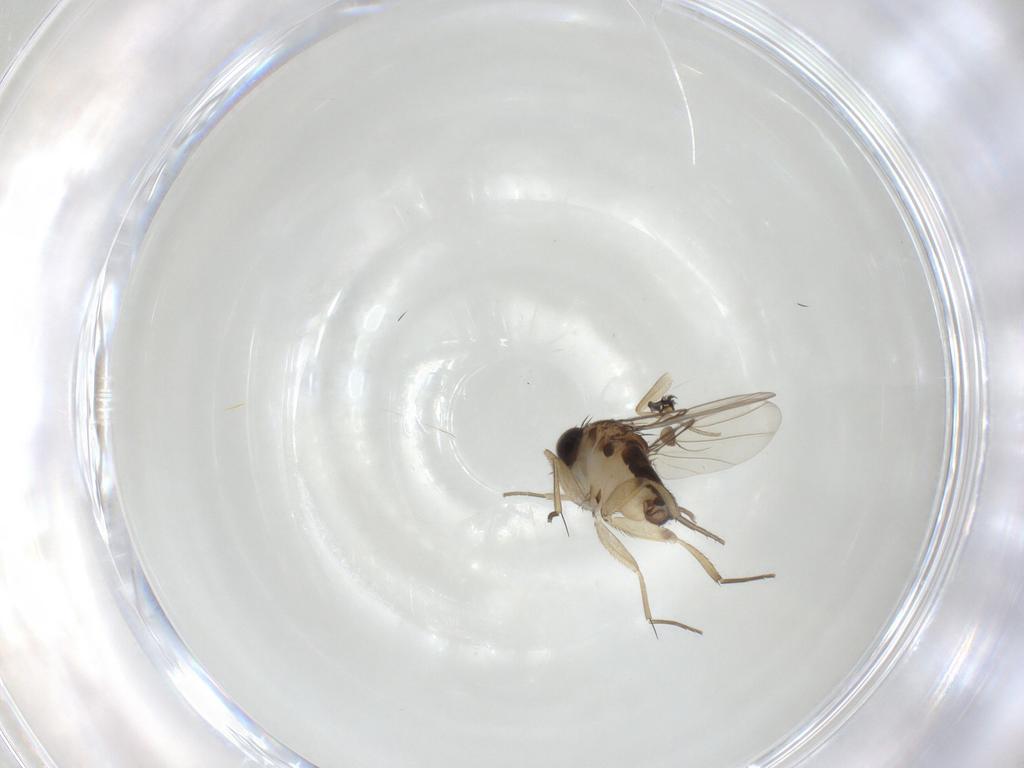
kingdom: Animalia
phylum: Arthropoda
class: Insecta
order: Diptera
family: Phoridae
